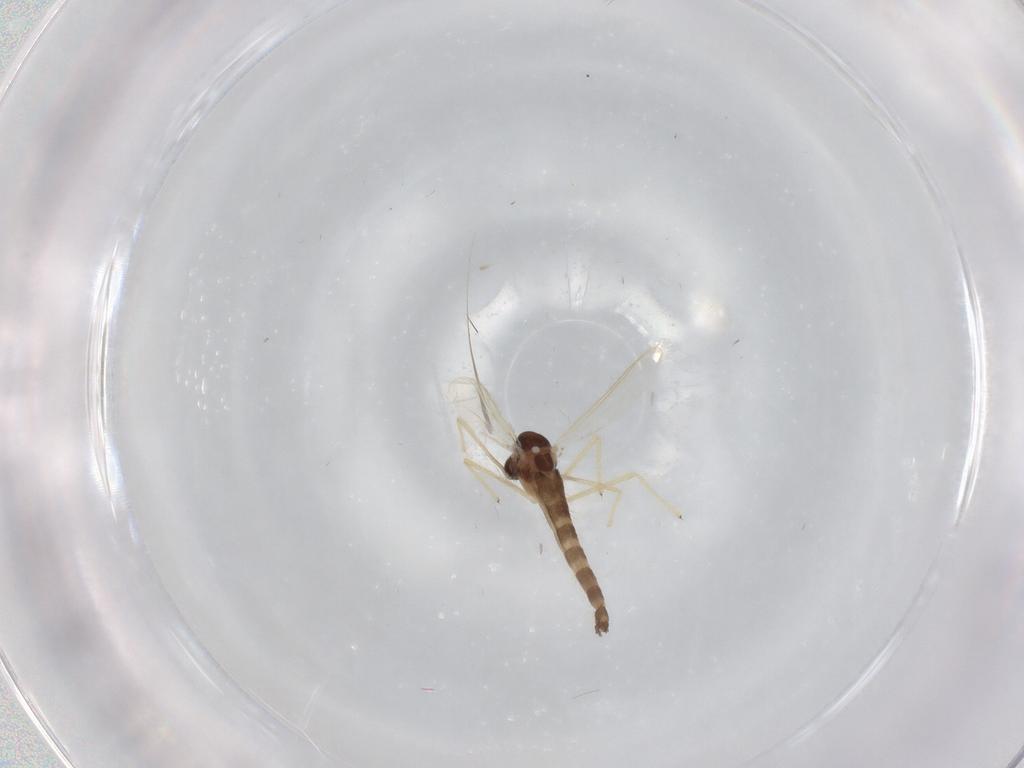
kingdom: Animalia
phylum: Arthropoda
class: Insecta
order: Diptera
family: Chironomidae
